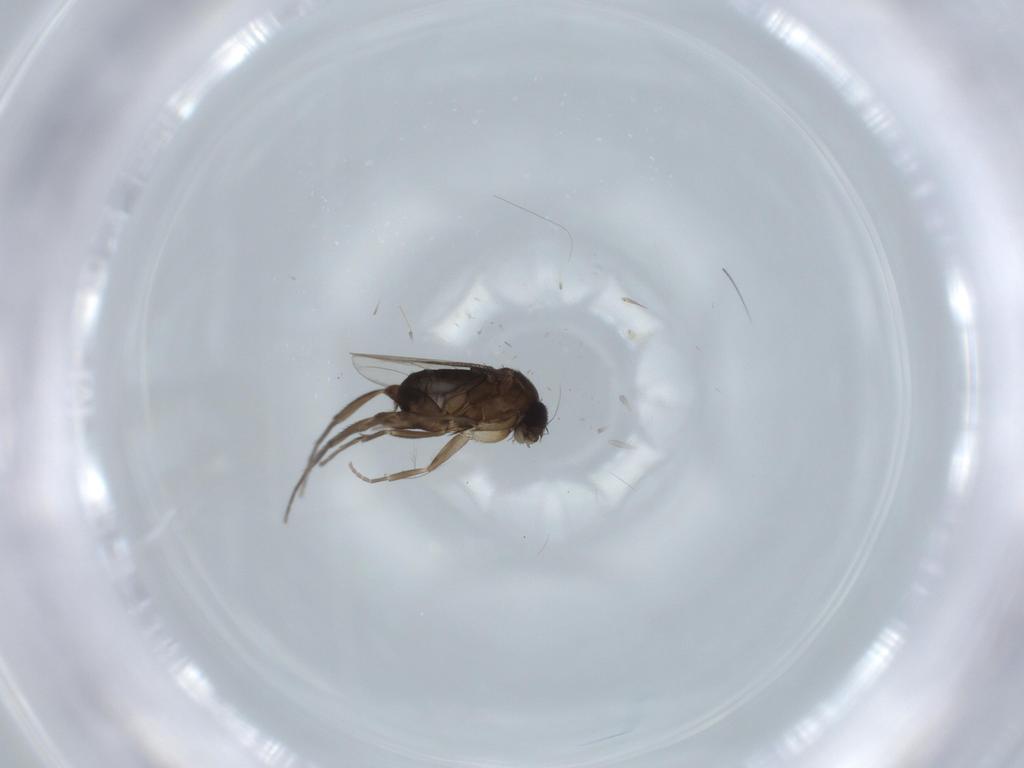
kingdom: Animalia
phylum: Arthropoda
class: Insecta
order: Diptera
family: Phoridae
